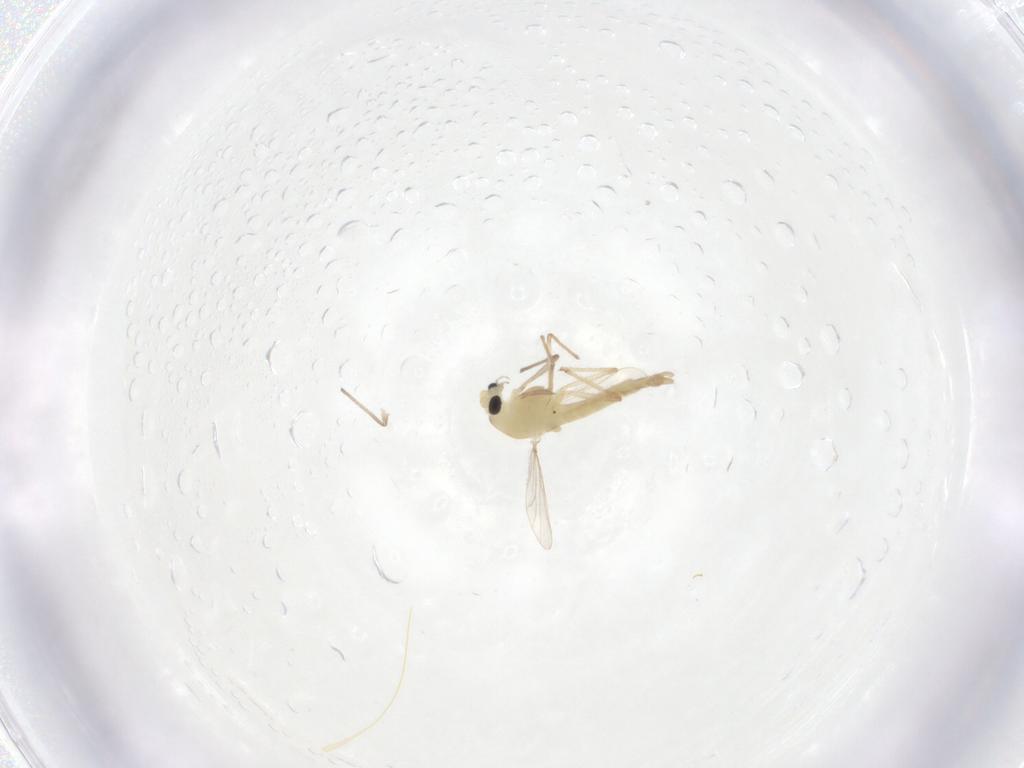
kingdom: Animalia
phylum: Arthropoda
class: Insecta
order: Diptera
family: Chironomidae
